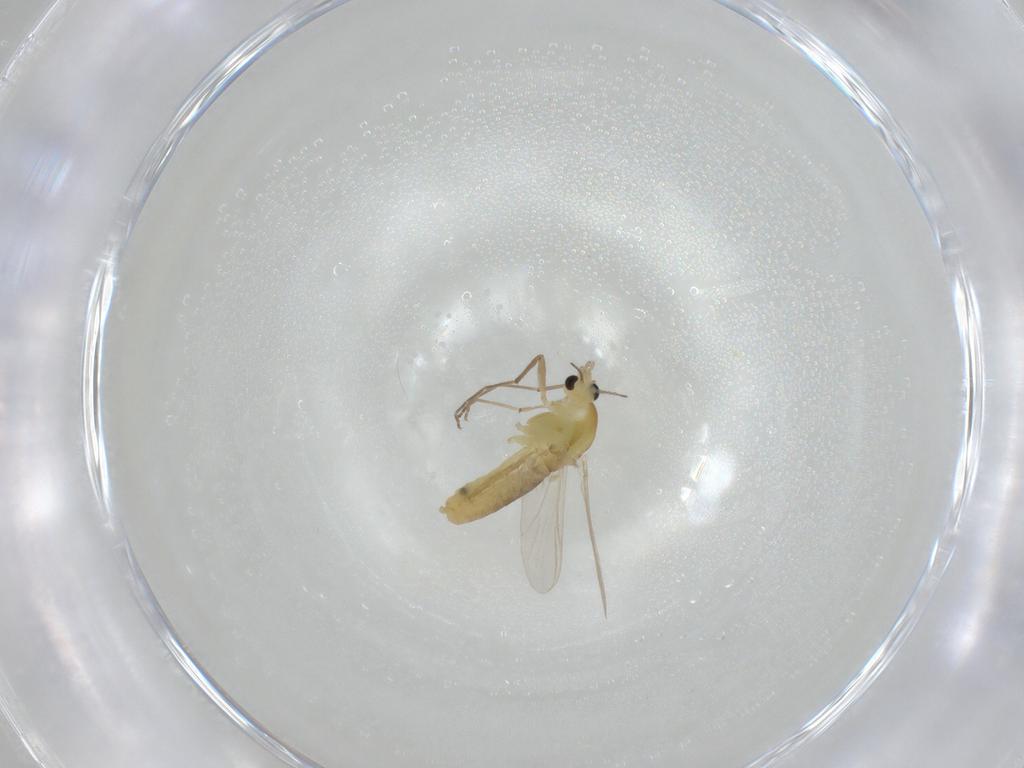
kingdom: Animalia
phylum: Arthropoda
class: Insecta
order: Diptera
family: Chironomidae
